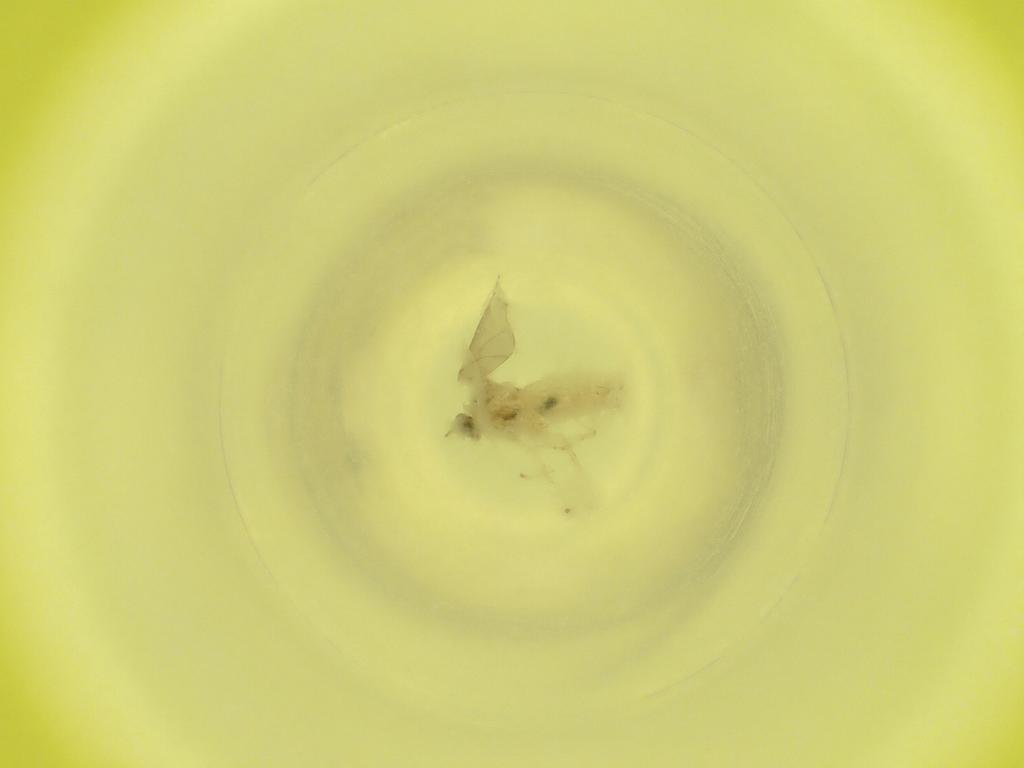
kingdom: Animalia
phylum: Arthropoda
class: Insecta
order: Diptera
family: Cecidomyiidae
